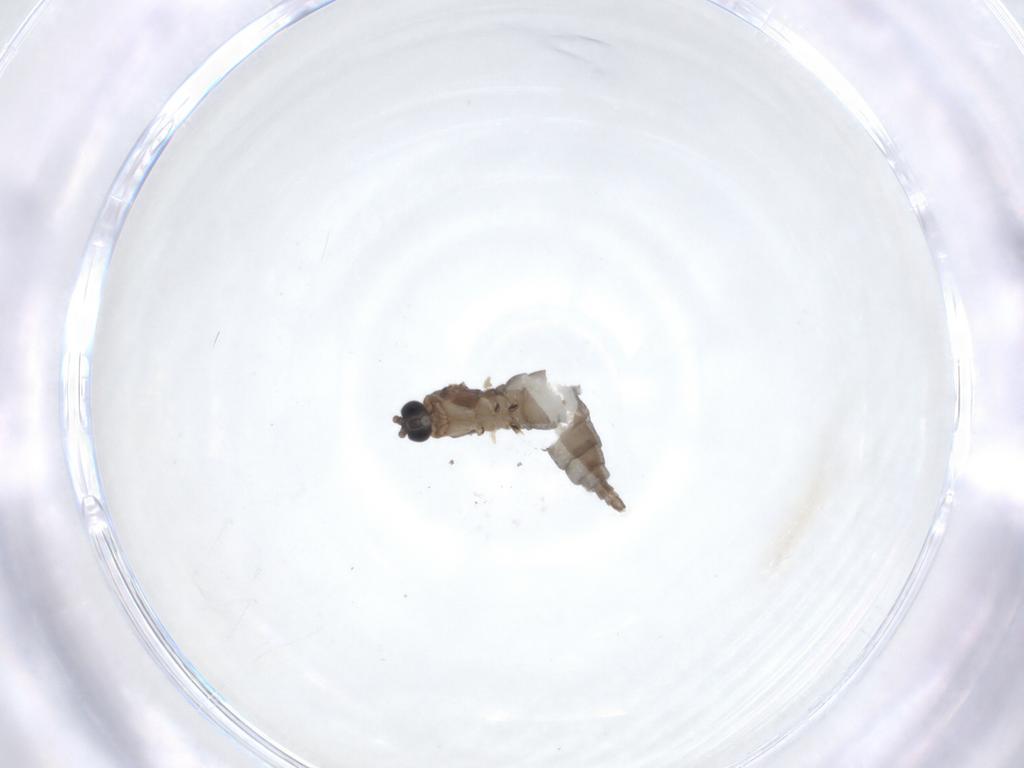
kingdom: Animalia
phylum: Arthropoda
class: Insecta
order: Diptera
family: Sciaridae
